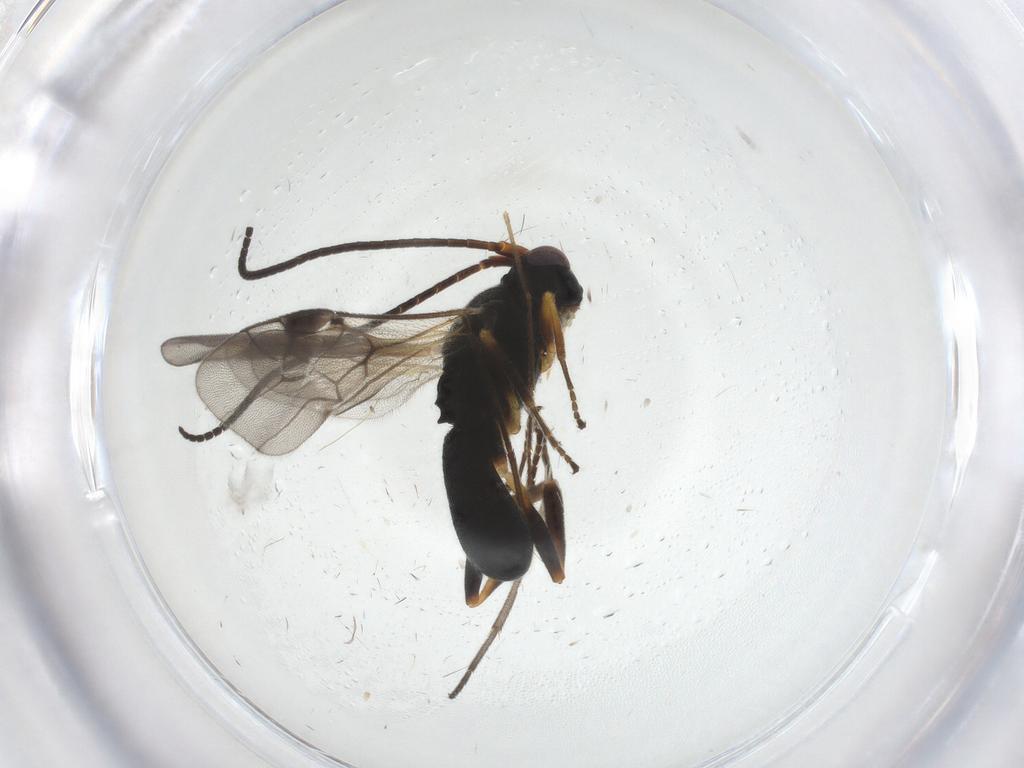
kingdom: Animalia
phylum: Arthropoda
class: Insecta
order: Hymenoptera
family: Braconidae
